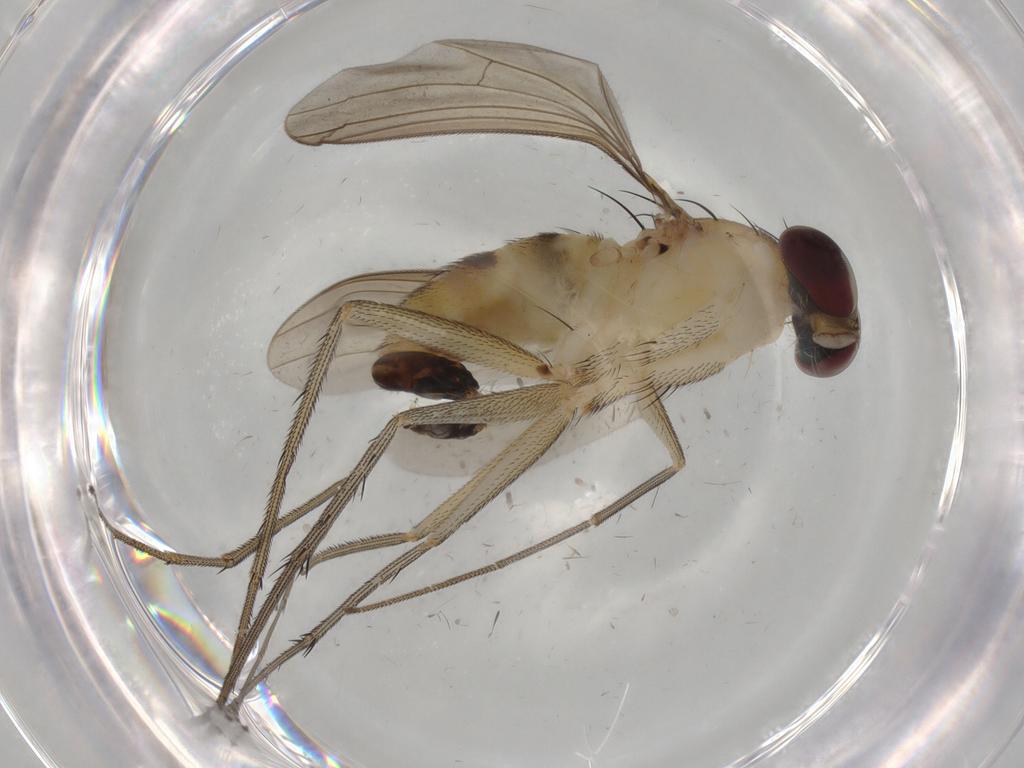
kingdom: Animalia
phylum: Arthropoda
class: Insecta
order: Diptera
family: Dolichopodidae
